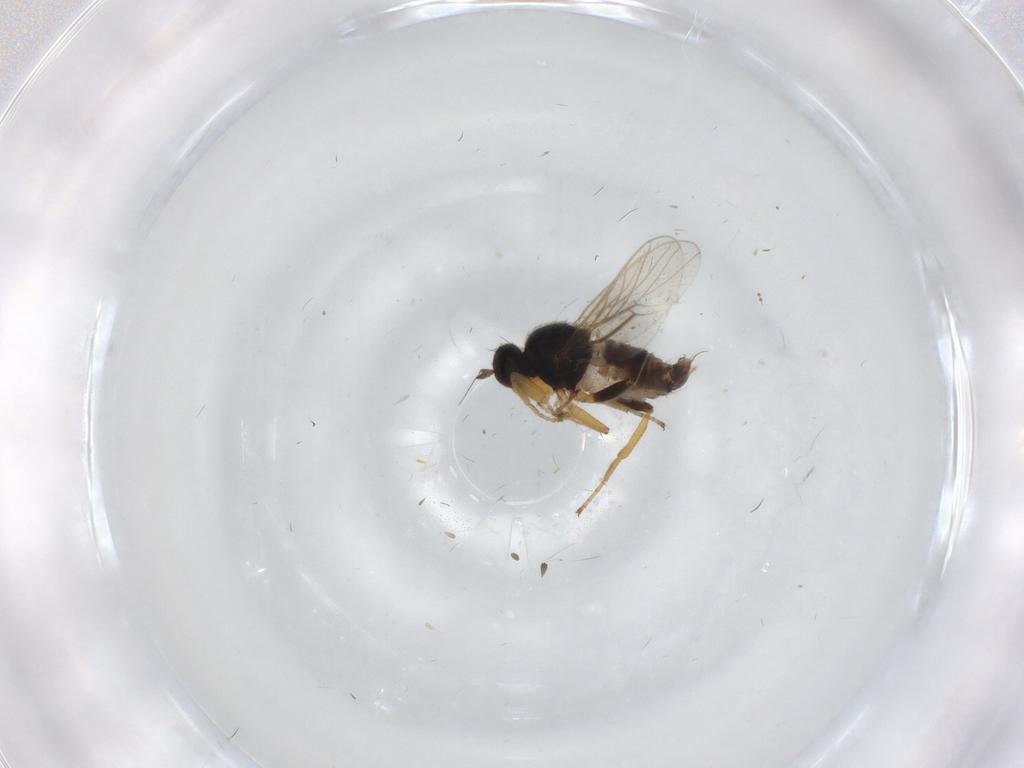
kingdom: Animalia
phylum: Arthropoda
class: Insecta
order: Diptera
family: Hybotidae
